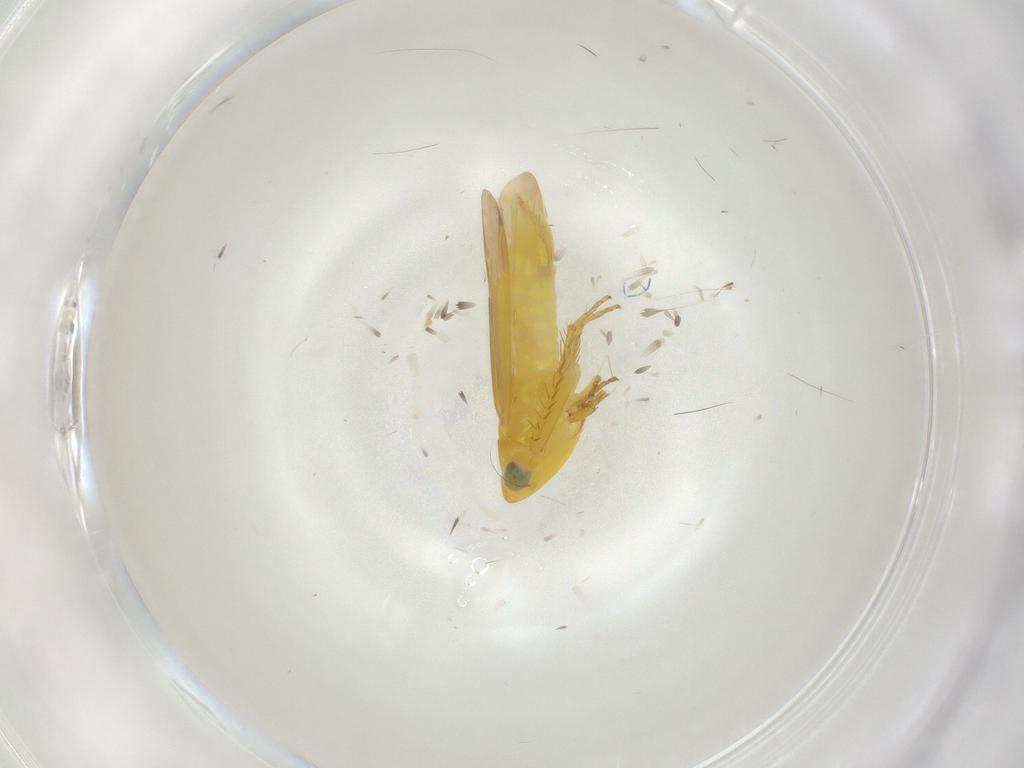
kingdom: Animalia
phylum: Arthropoda
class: Insecta
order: Hemiptera
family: Cicadellidae
